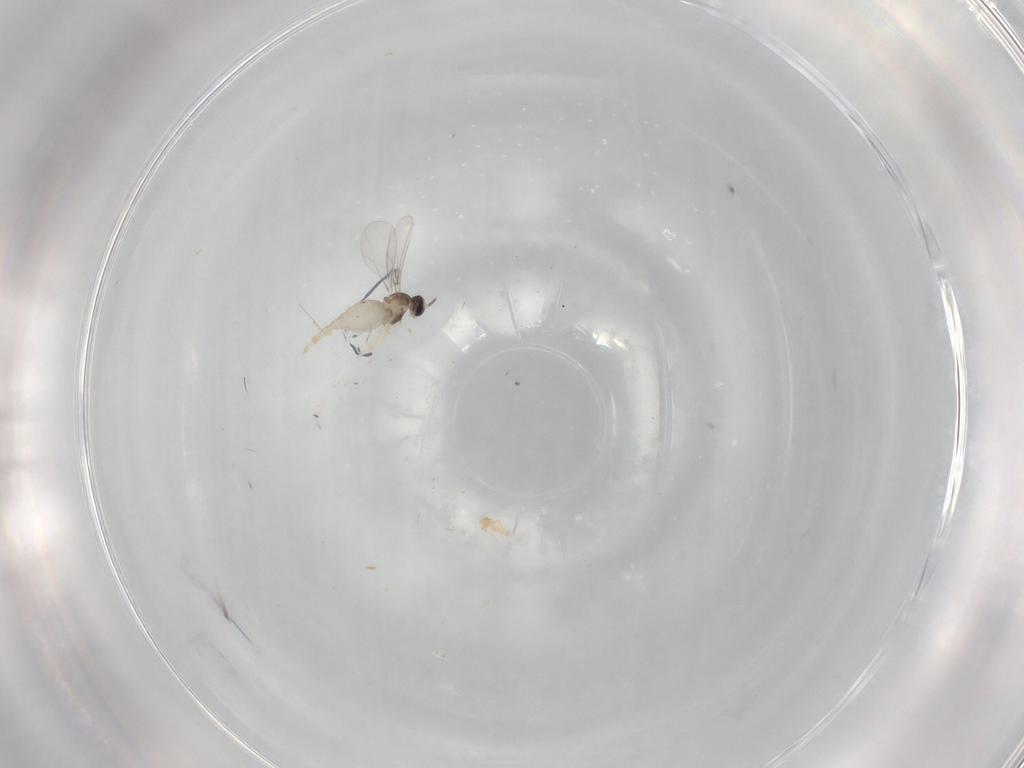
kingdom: Animalia
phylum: Arthropoda
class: Insecta
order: Diptera
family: Cecidomyiidae
